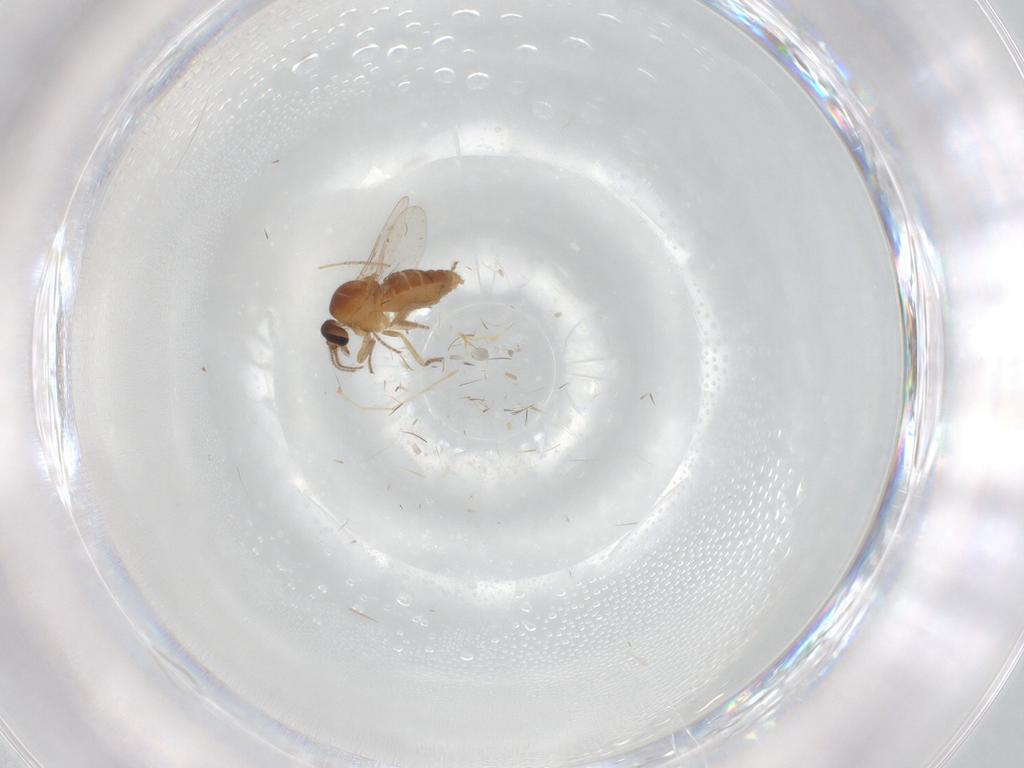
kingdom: Animalia
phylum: Arthropoda
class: Insecta
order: Diptera
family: Ceratopogonidae
